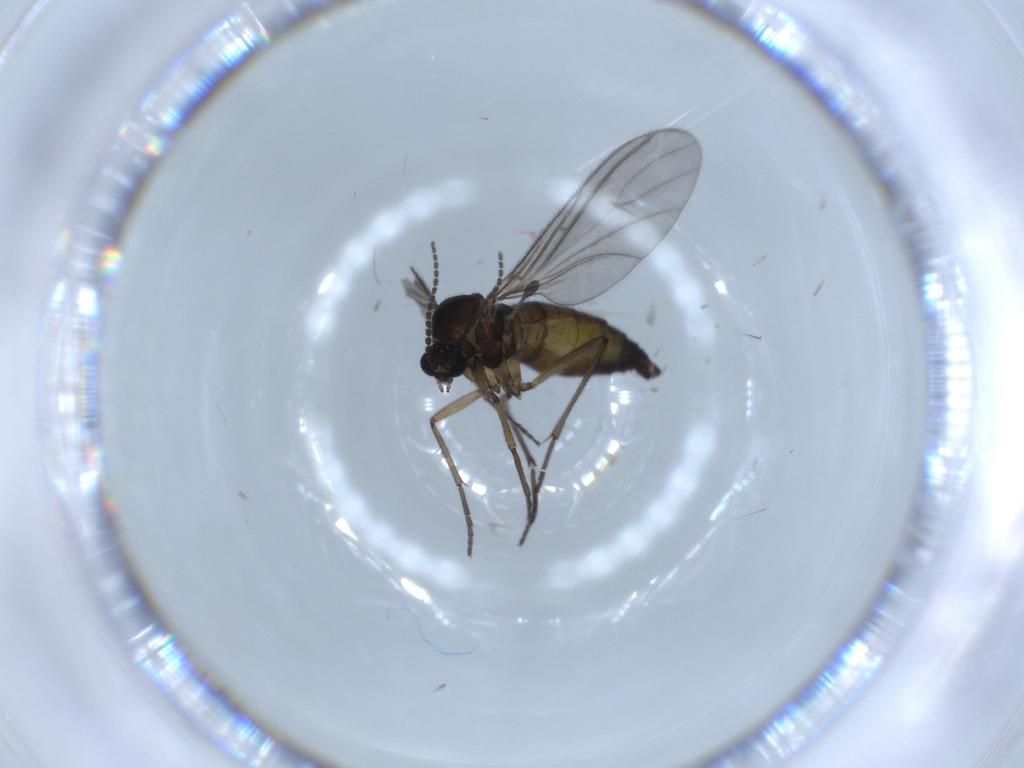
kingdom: Animalia
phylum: Arthropoda
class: Insecta
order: Diptera
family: Sciaridae
